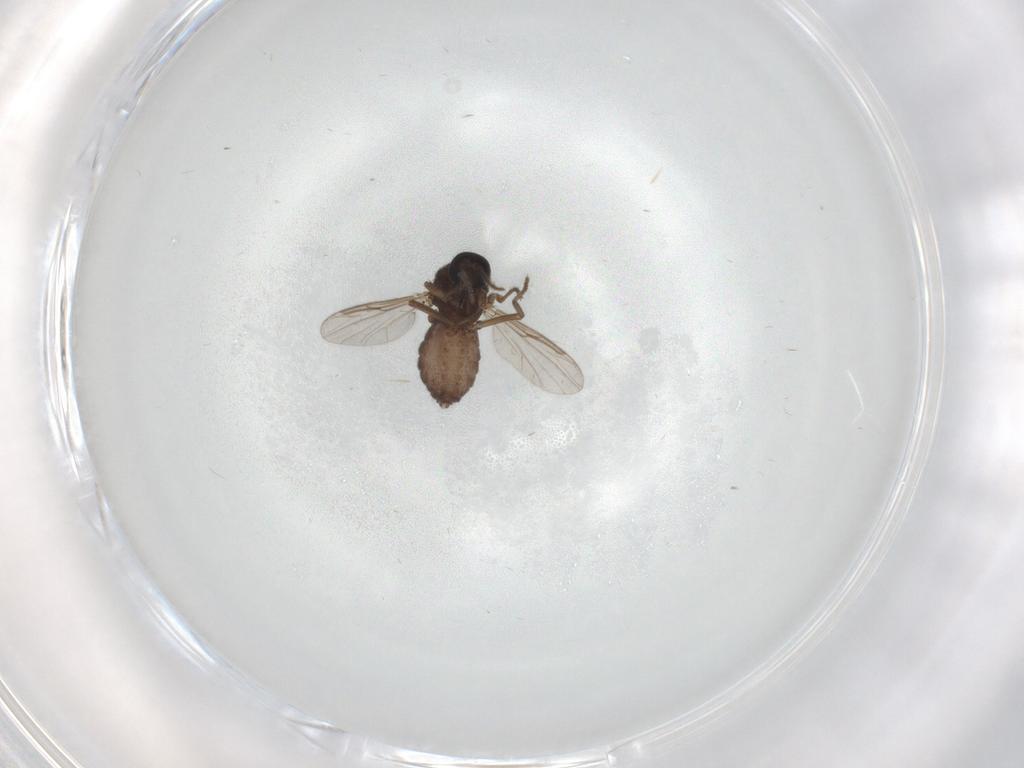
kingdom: Animalia
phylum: Arthropoda
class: Insecta
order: Diptera
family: Ceratopogonidae
